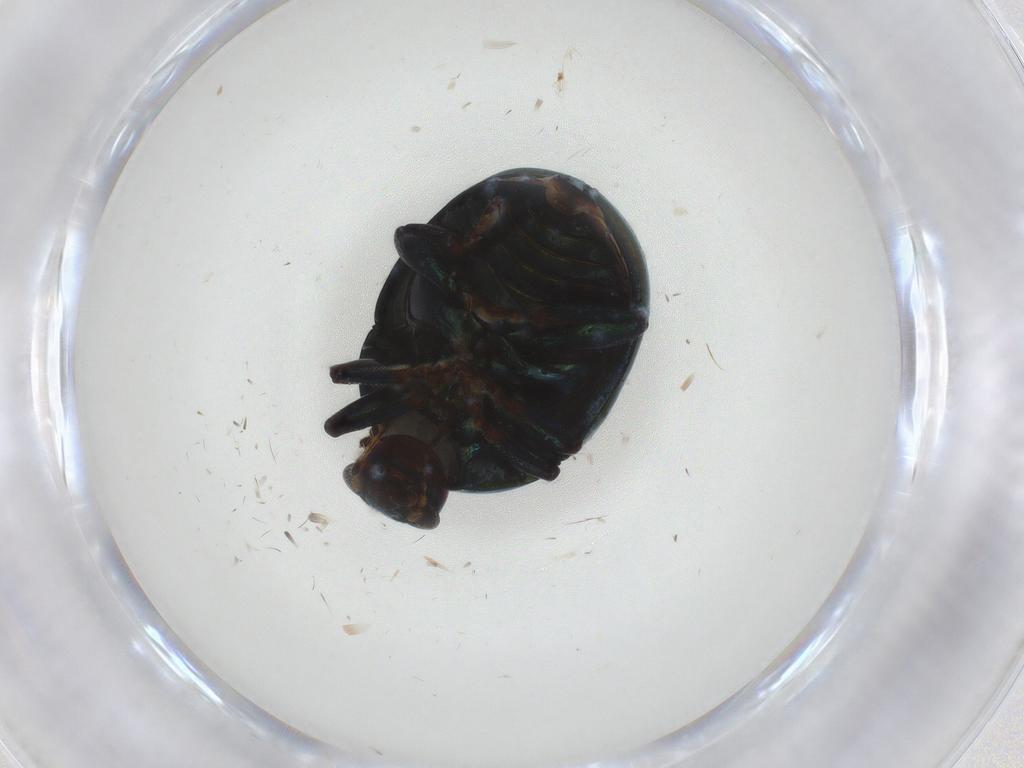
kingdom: Animalia
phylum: Arthropoda
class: Insecta
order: Coleoptera
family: Chrysomelidae
